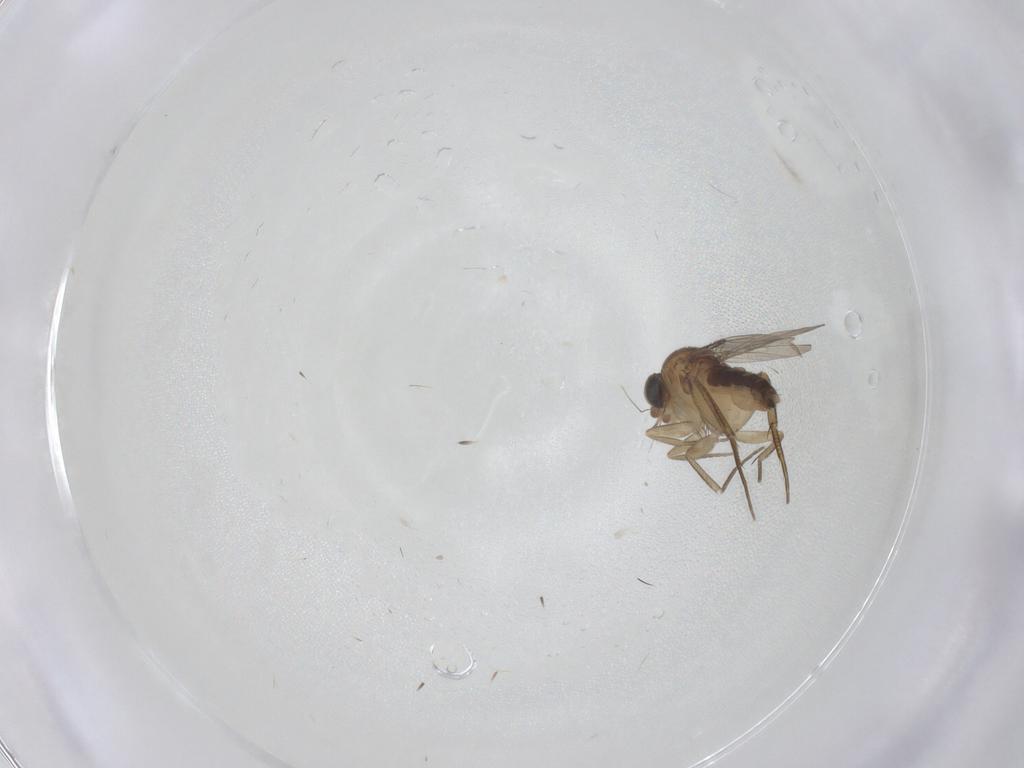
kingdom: Animalia
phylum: Arthropoda
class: Insecta
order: Diptera
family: Phoridae
